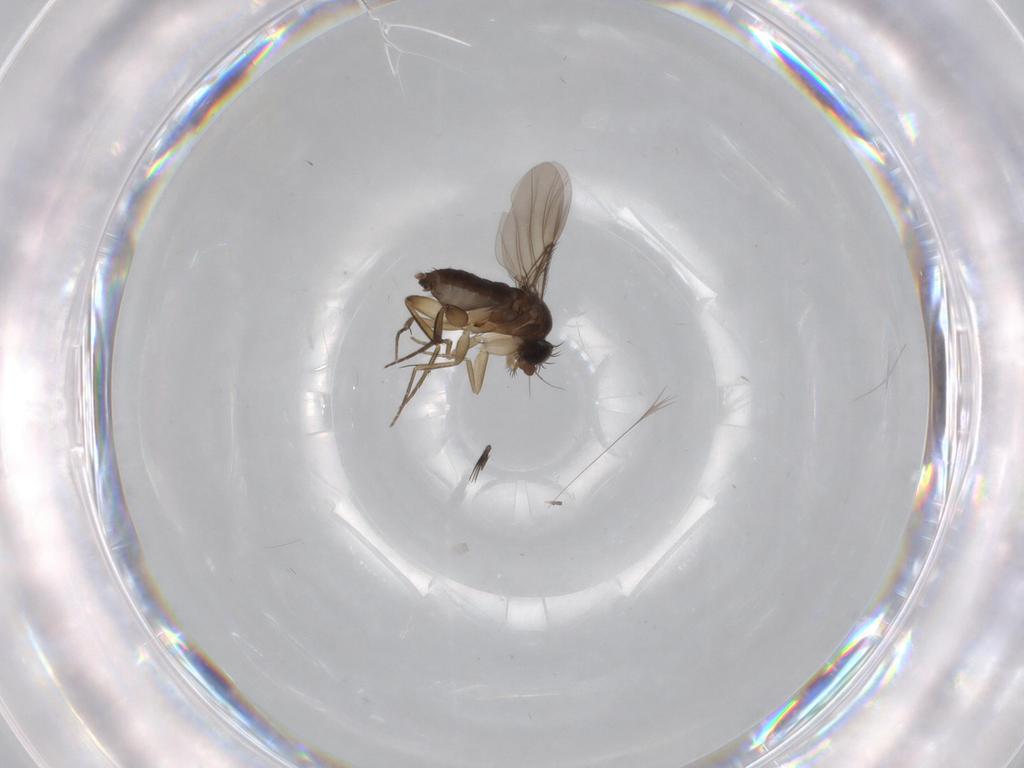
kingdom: Animalia
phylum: Arthropoda
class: Insecta
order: Diptera
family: Phoridae
